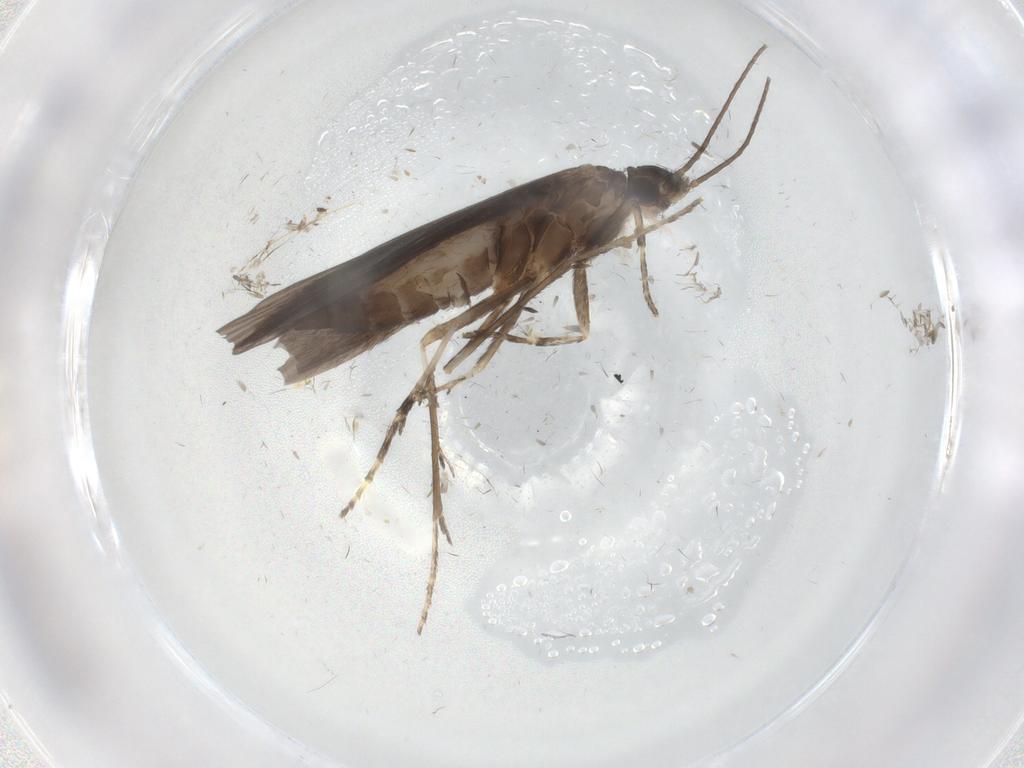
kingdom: Animalia
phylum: Arthropoda
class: Insecta
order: Trichoptera
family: Xiphocentronidae
